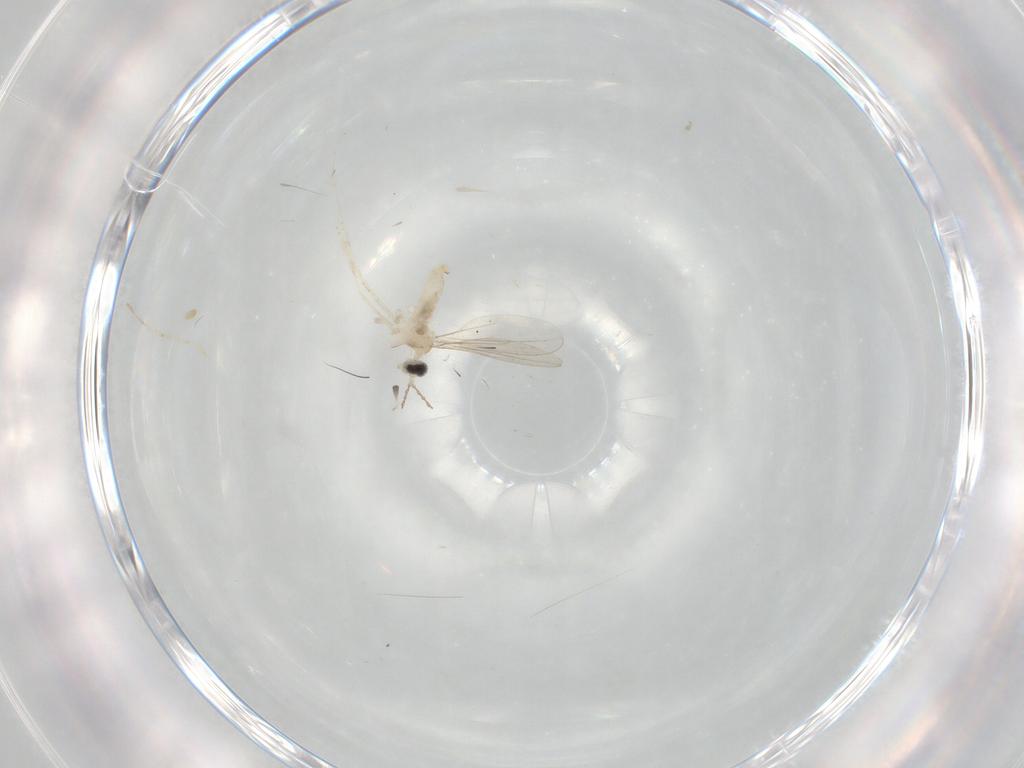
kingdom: Animalia
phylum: Arthropoda
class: Insecta
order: Diptera
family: Cecidomyiidae
